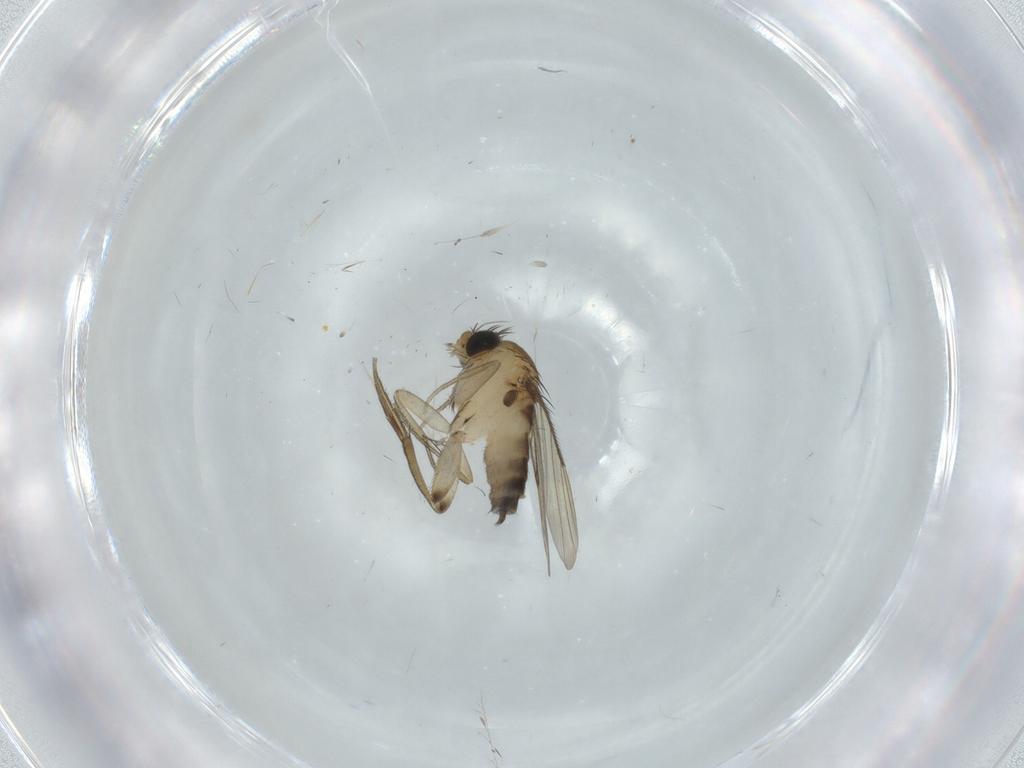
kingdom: Animalia
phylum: Arthropoda
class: Insecta
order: Diptera
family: Phoridae
